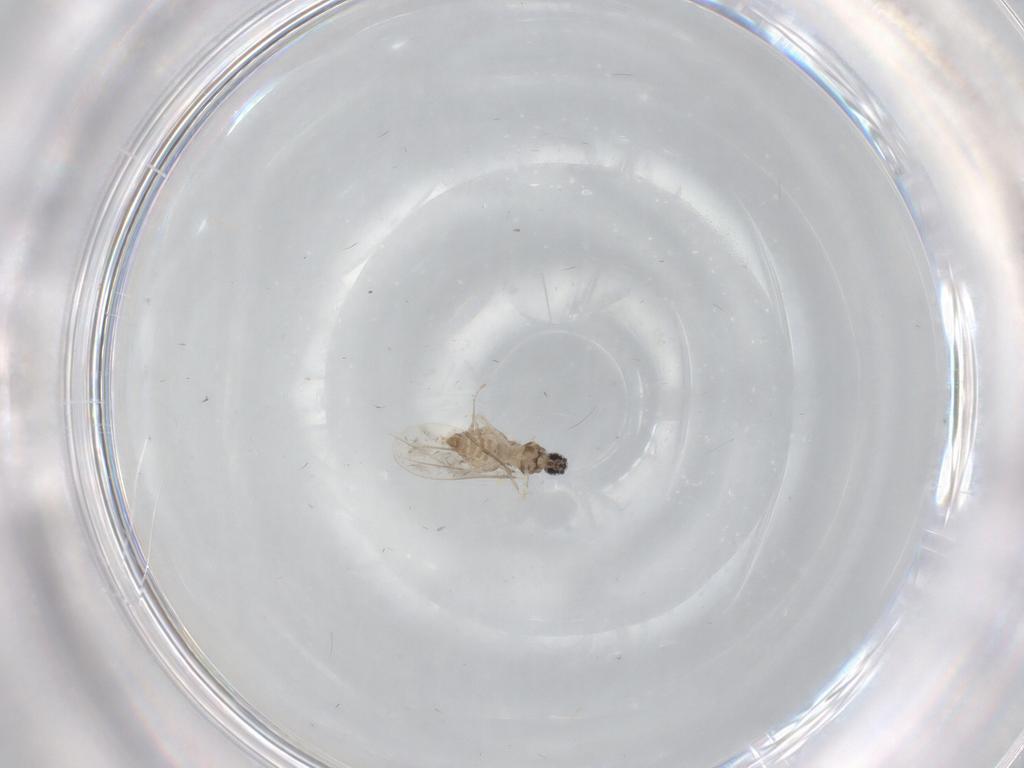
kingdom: Animalia
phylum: Arthropoda
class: Insecta
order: Diptera
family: Cecidomyiidae
